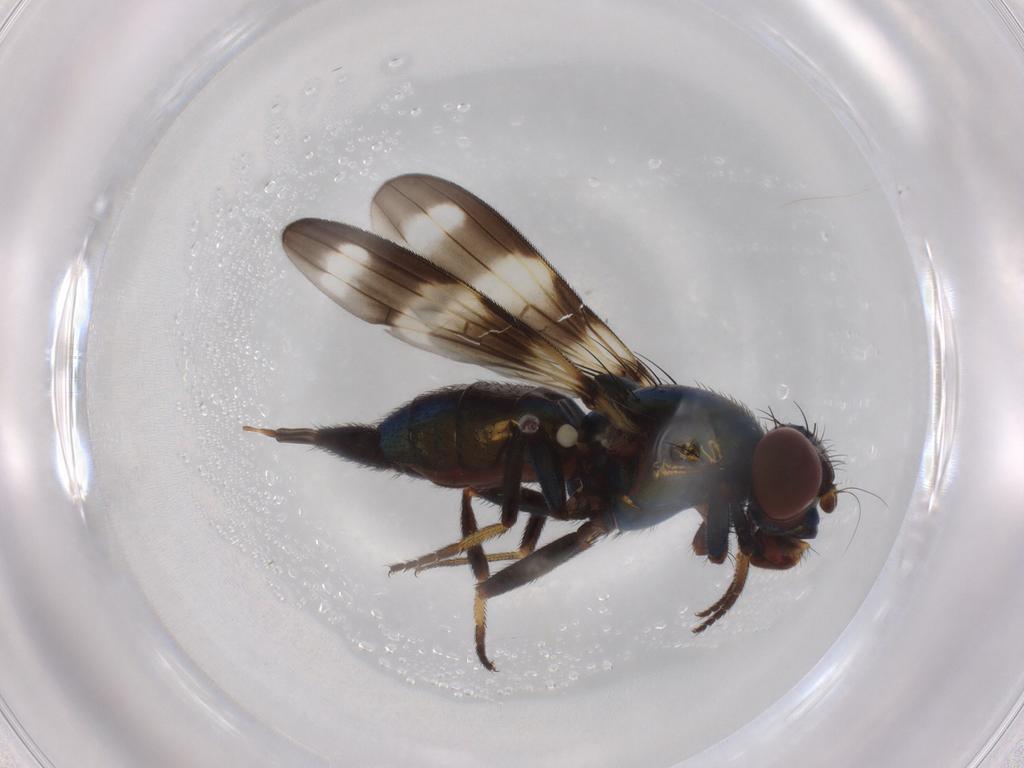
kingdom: Animalia
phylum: Arthropoda
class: Insecta
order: Diptera
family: Ulidiidae
